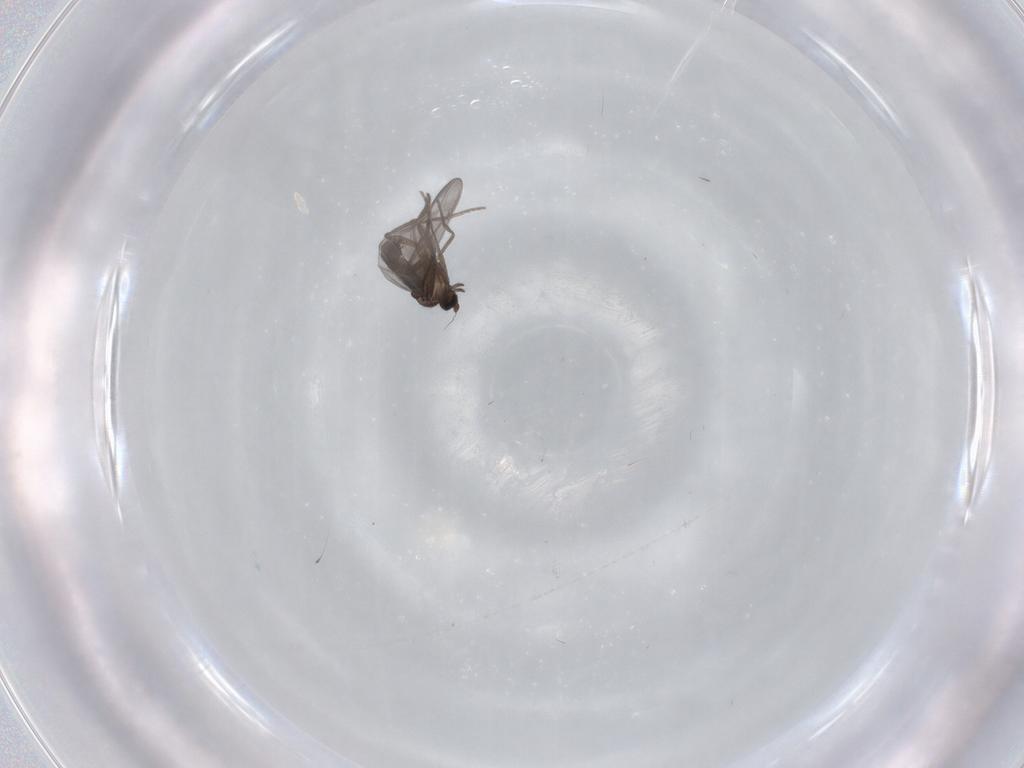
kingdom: Animalia
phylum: Arthropoda
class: Insecta
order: Diptera
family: Phoridae
